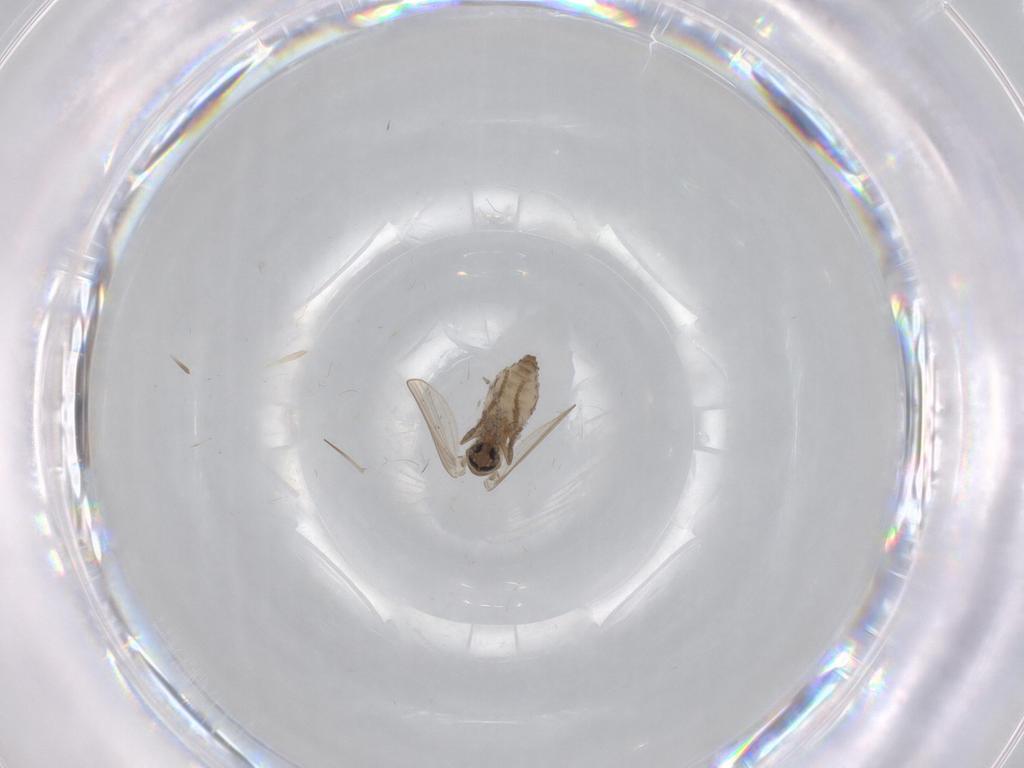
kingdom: Animalia
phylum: Arthropoda
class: Insecta
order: Diptera
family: Psychodidae
